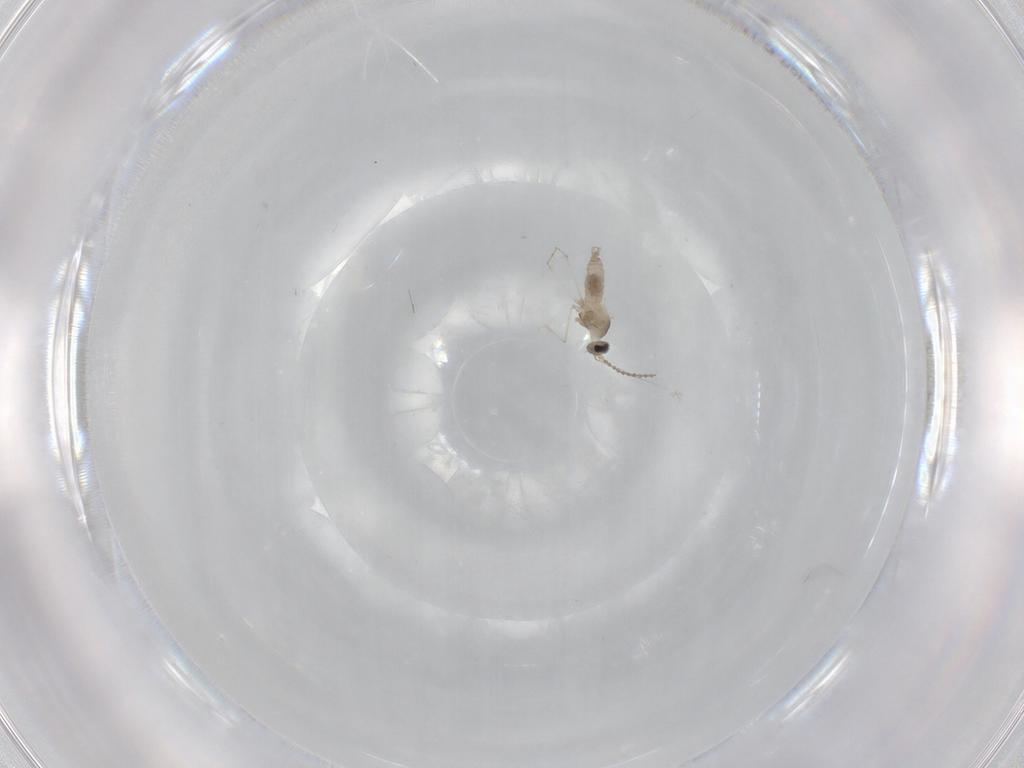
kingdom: Animalia
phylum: Arthropoda
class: Insecta
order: Diptera
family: Cecidomyiidae
